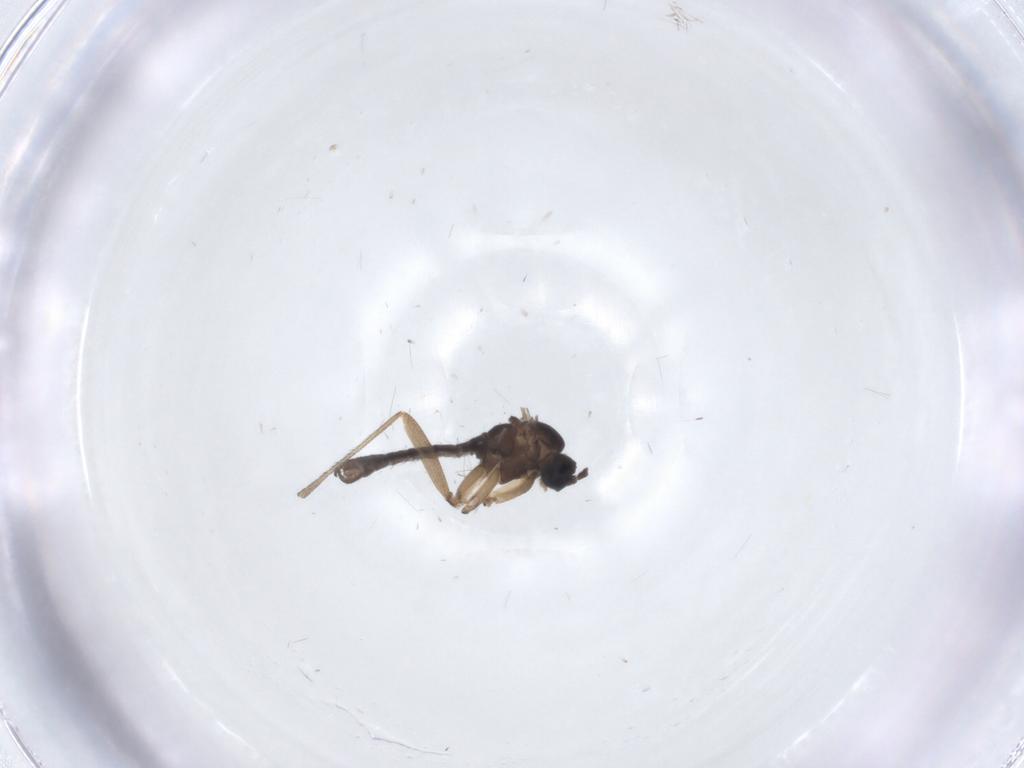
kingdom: Animalia
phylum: Arthropoda
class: Insecta
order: Diptera
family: Sciaridae
